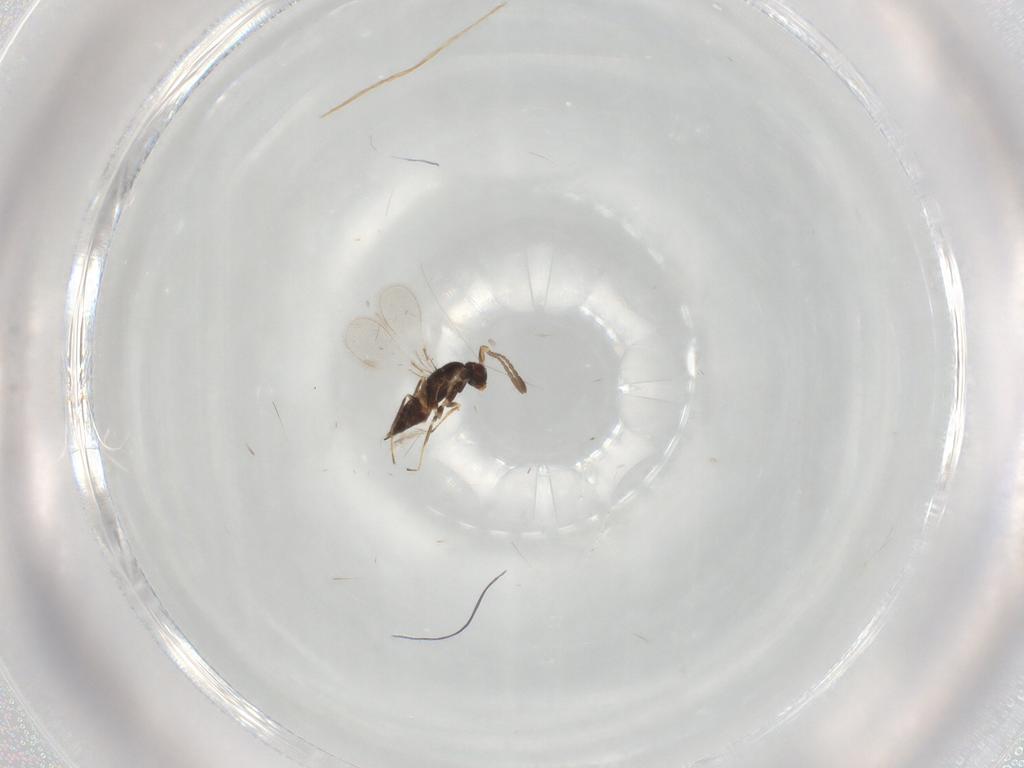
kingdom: Animalia
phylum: Arthropoda
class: Insecta
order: Hymenoptera
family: Mymaridae
